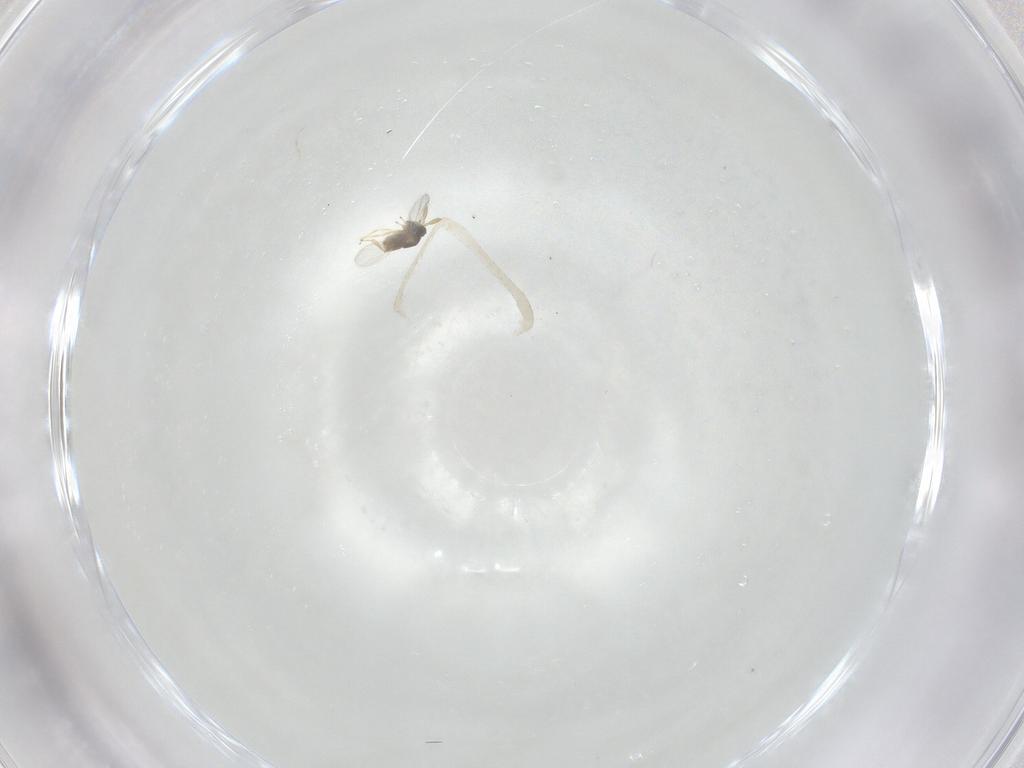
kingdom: Animalia
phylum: Arthropoda
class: Insecta
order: Hymenoptera
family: Encyrtidae
